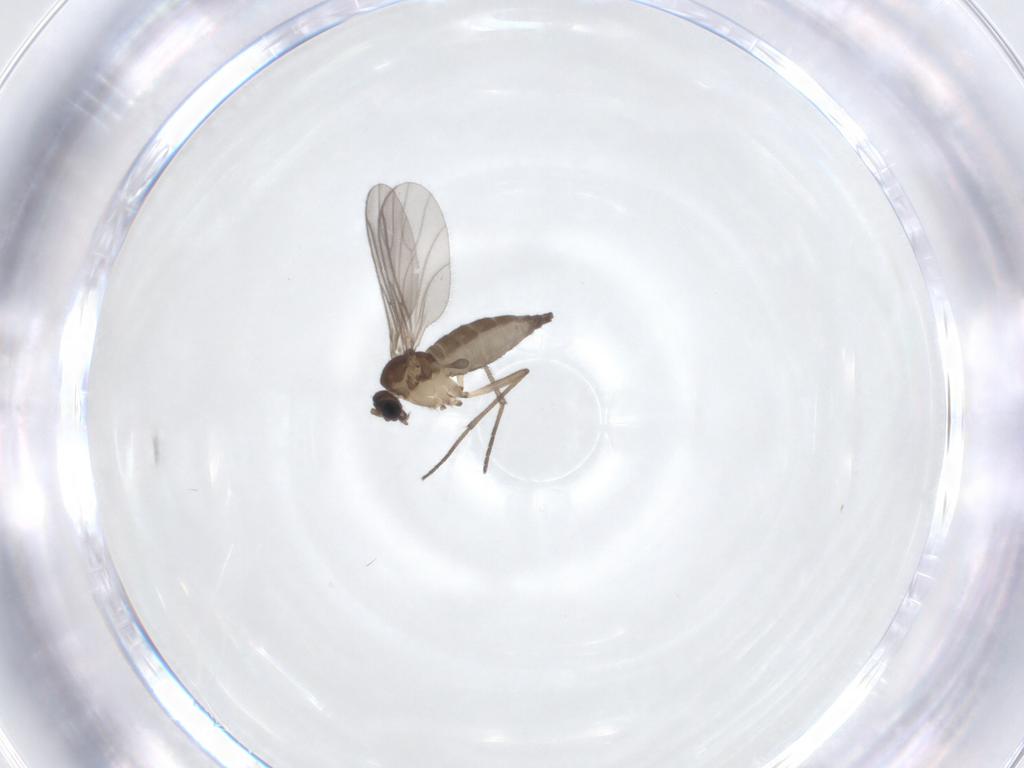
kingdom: Animalia
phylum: Arthropoda
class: Insecta
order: Diptera
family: Sciaridae
